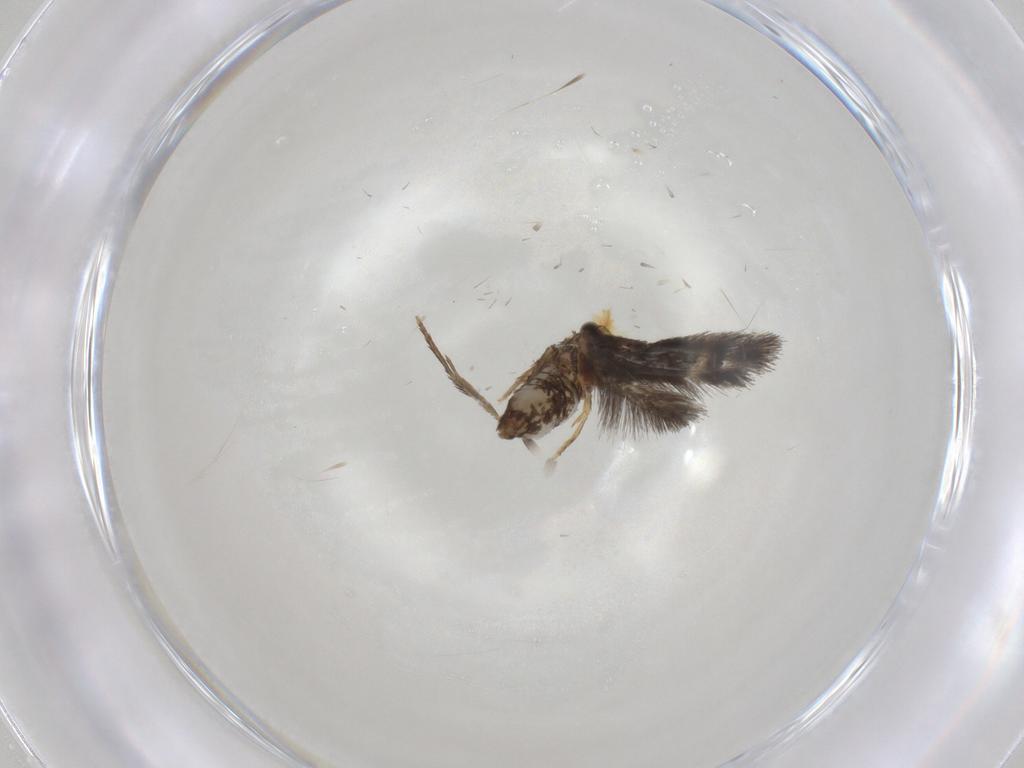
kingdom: Animalia
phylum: Arthropoda
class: Insecta
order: Lepidoptera
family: Nepticulidae
